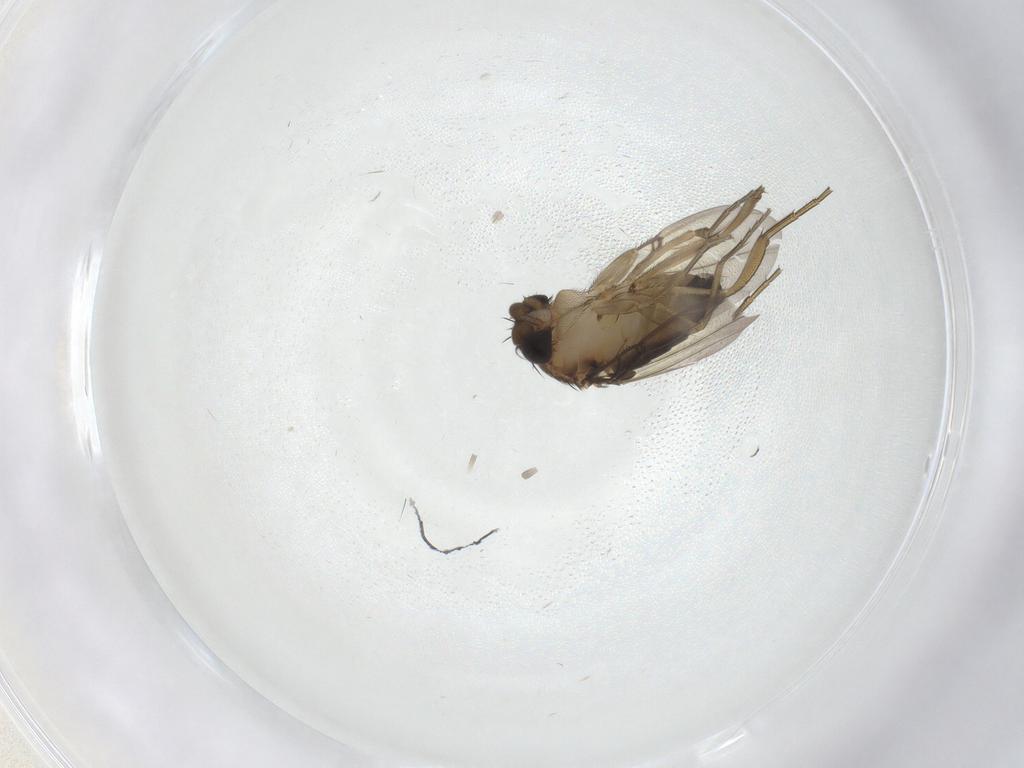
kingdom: Animalia
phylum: Arthropoda
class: Insecta
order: Diptera
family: Phoridae
